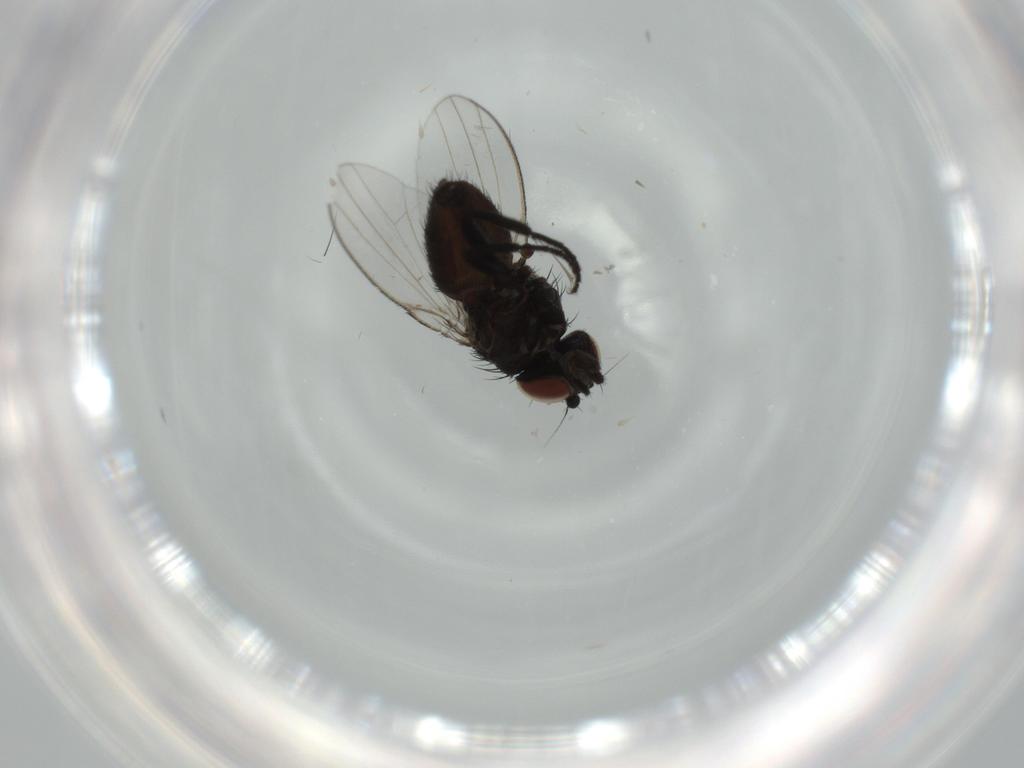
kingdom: Animalia
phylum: Arthropoda
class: Insecta
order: Diptera
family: Milichiidae
